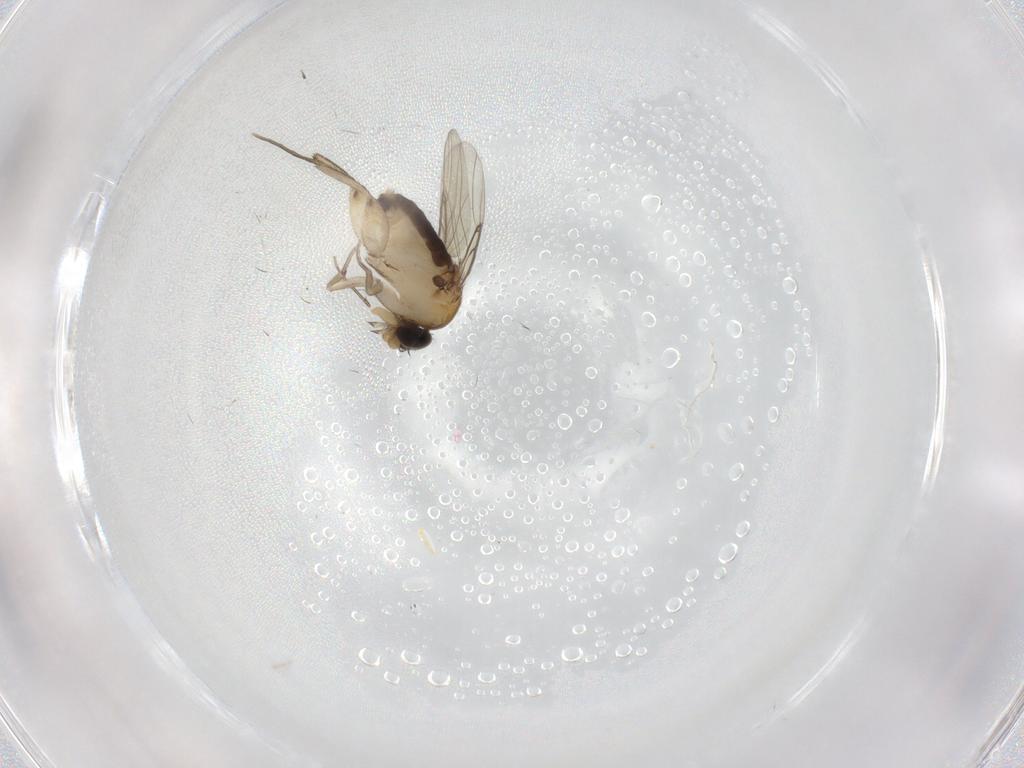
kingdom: Animalia
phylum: Arthropoda
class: Insecta
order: Diptera
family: Phoridae
